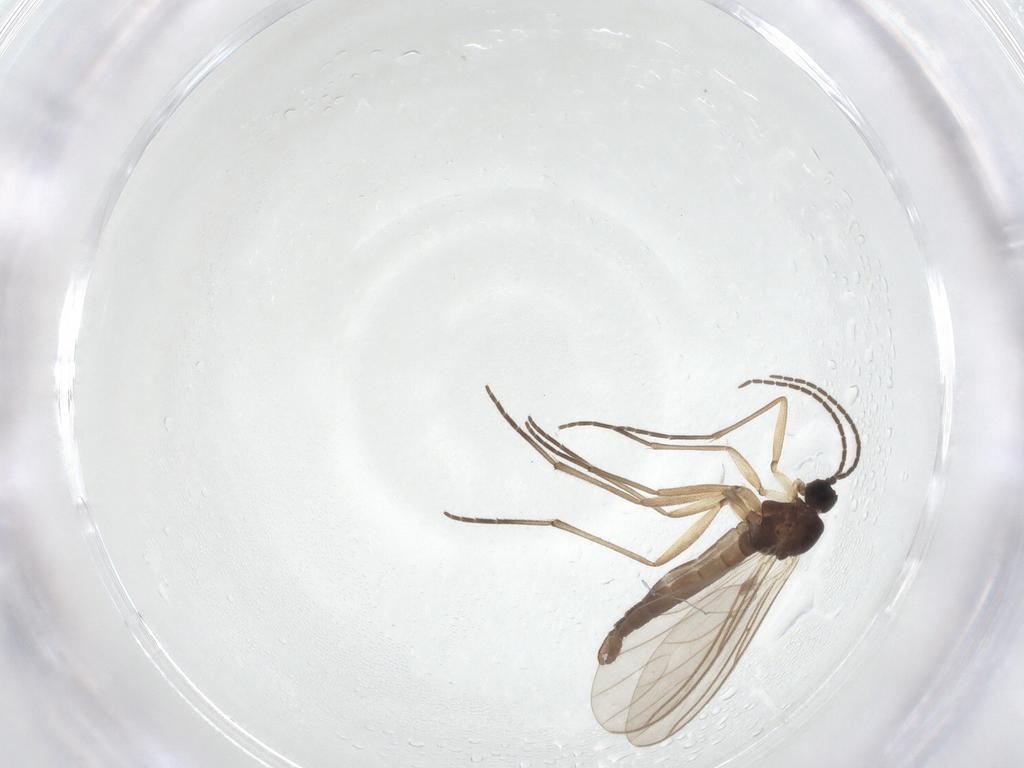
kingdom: Animalia
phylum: Arthropoda
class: Insecta
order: Diptera
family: Sciaridae
